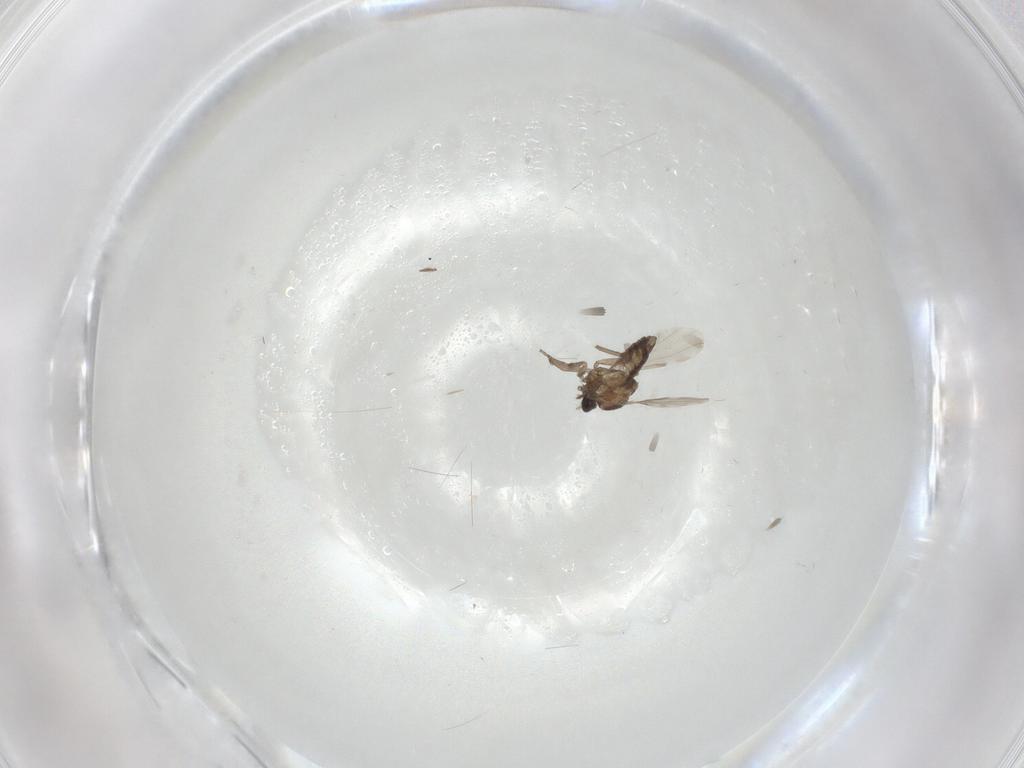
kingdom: Animalia
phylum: Arthropoda
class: Insecta
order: Diptera
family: Ceratopogonidae
